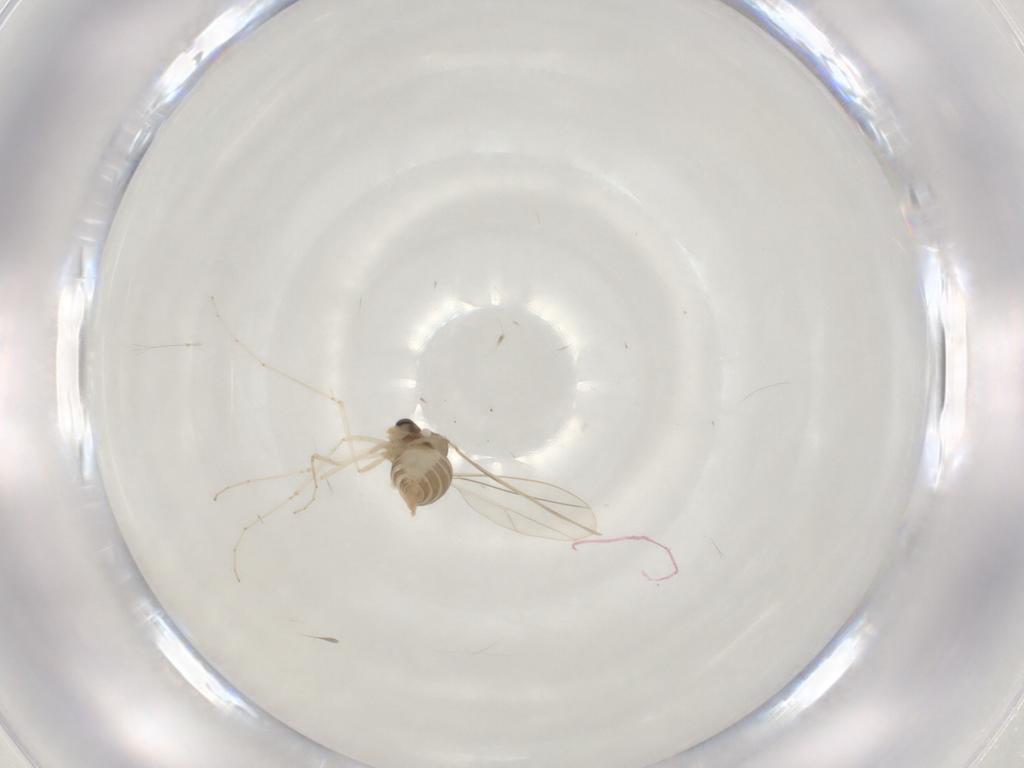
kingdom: Animalia
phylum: Arthropoda
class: Insecta
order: Diptera
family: Cecidomyiidae
